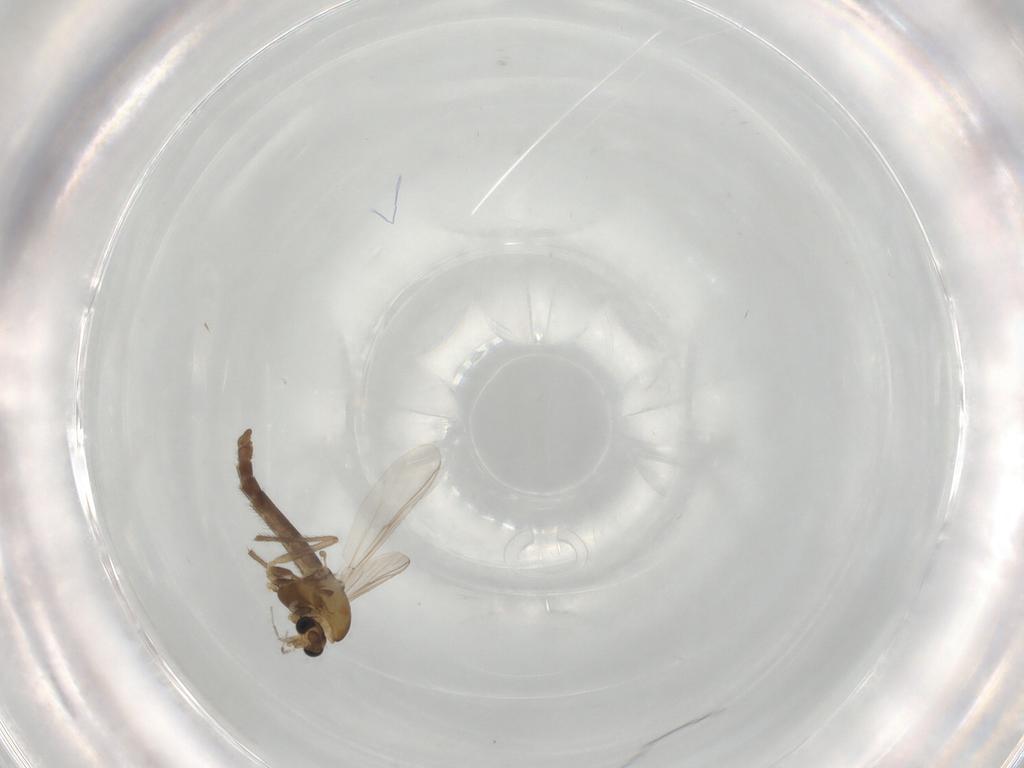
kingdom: Animalia
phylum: Arthropoda
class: Insecta
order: Diptera
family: Chironomidae
